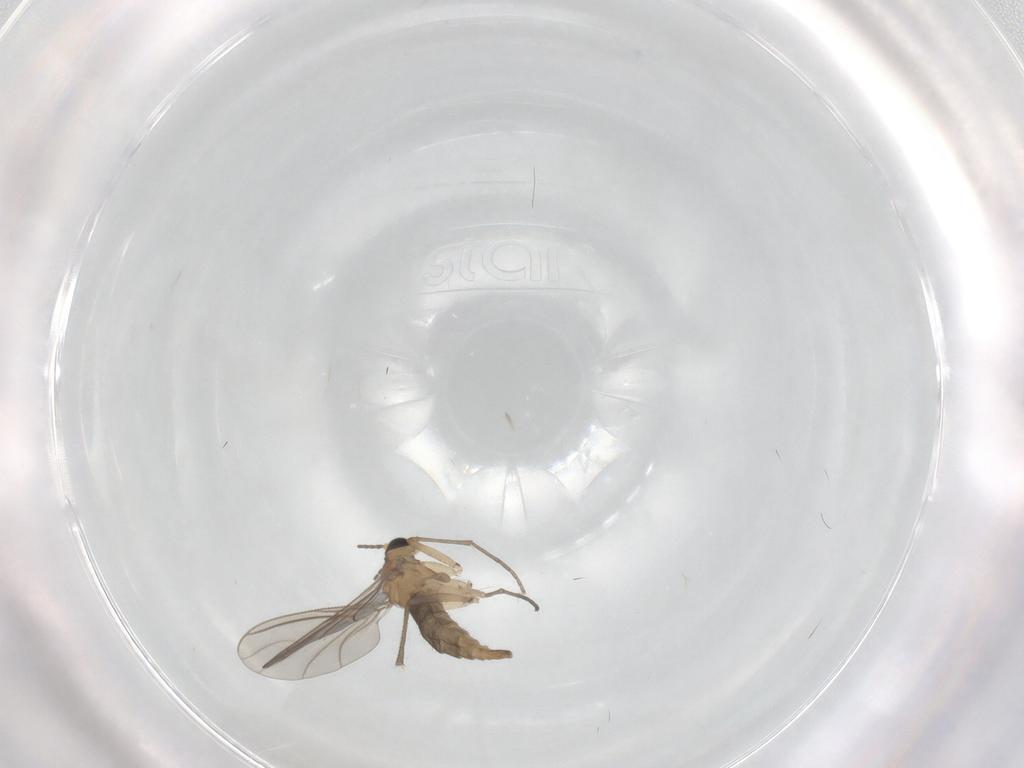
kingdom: Animalia
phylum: Arthropoda
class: Insecta
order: Diptera
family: Sciaridae
